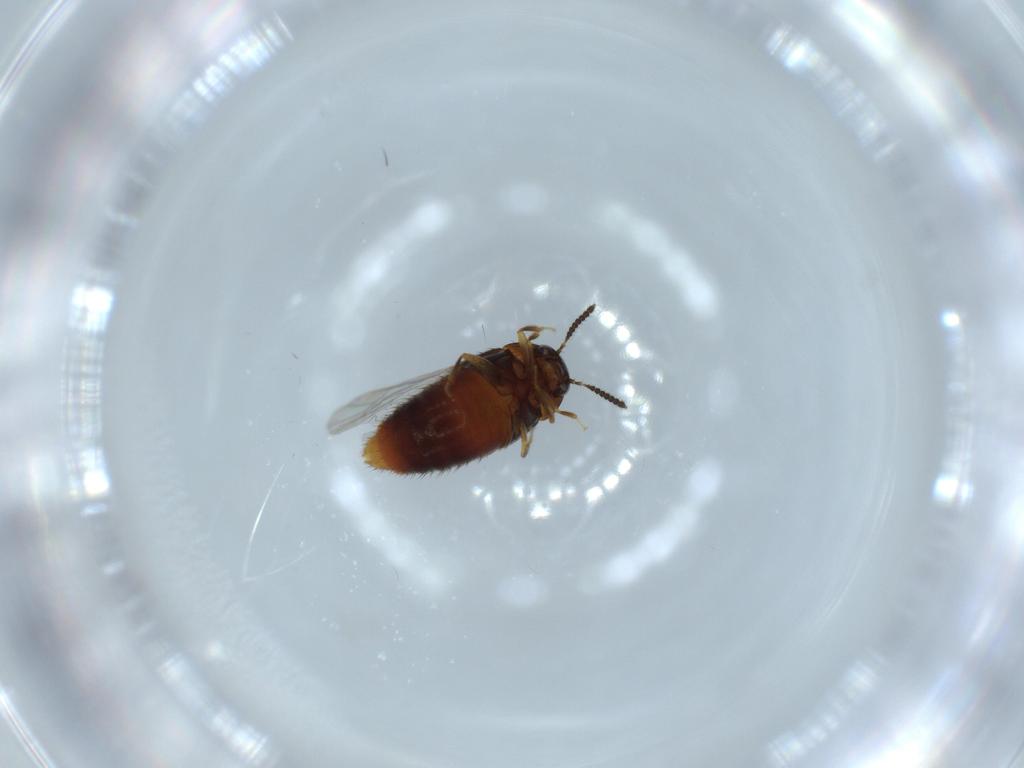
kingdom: Animalia
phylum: Arthropoda
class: Insecta
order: Coleoptera
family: Staphylinidae
